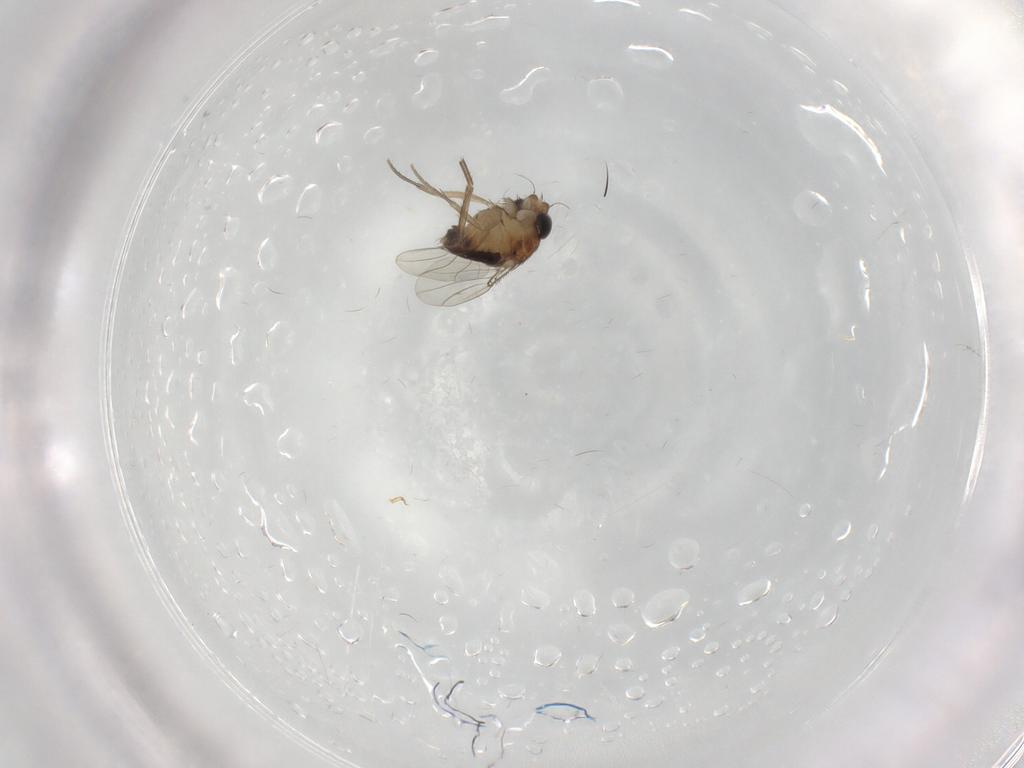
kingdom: Animalia
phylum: Arthropoda
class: Insecta
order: Diptera
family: Phoridae
